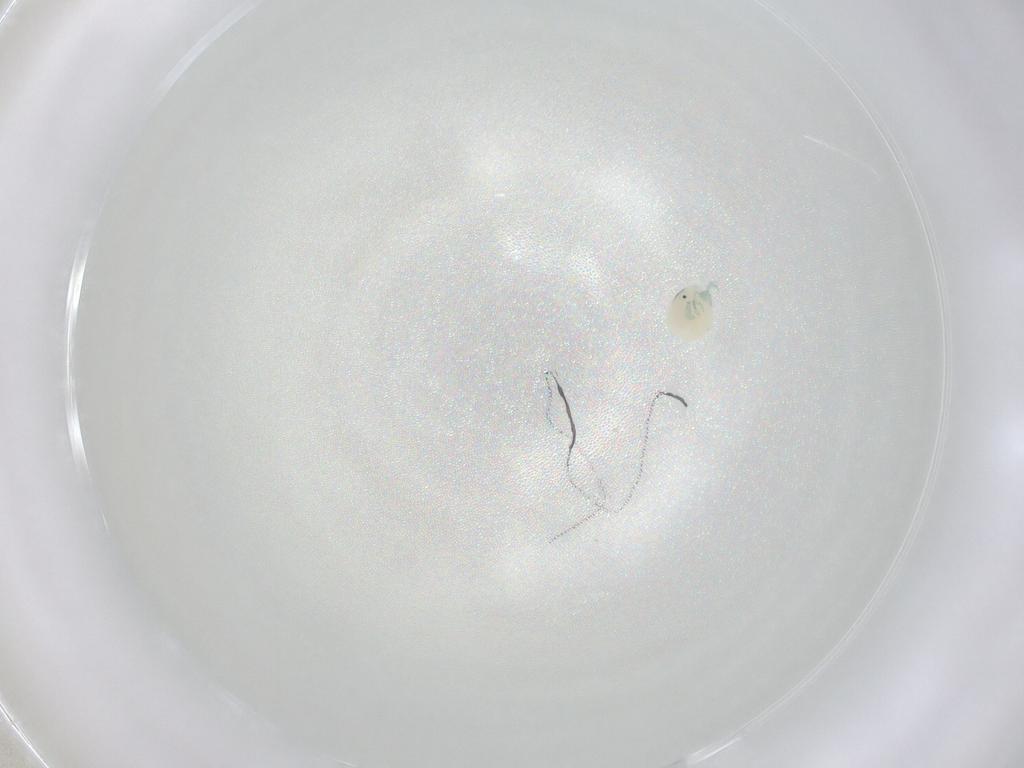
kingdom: Animalia
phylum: Arthropoda
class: Arachnida
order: Trombidiformes
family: Arrenuridae
